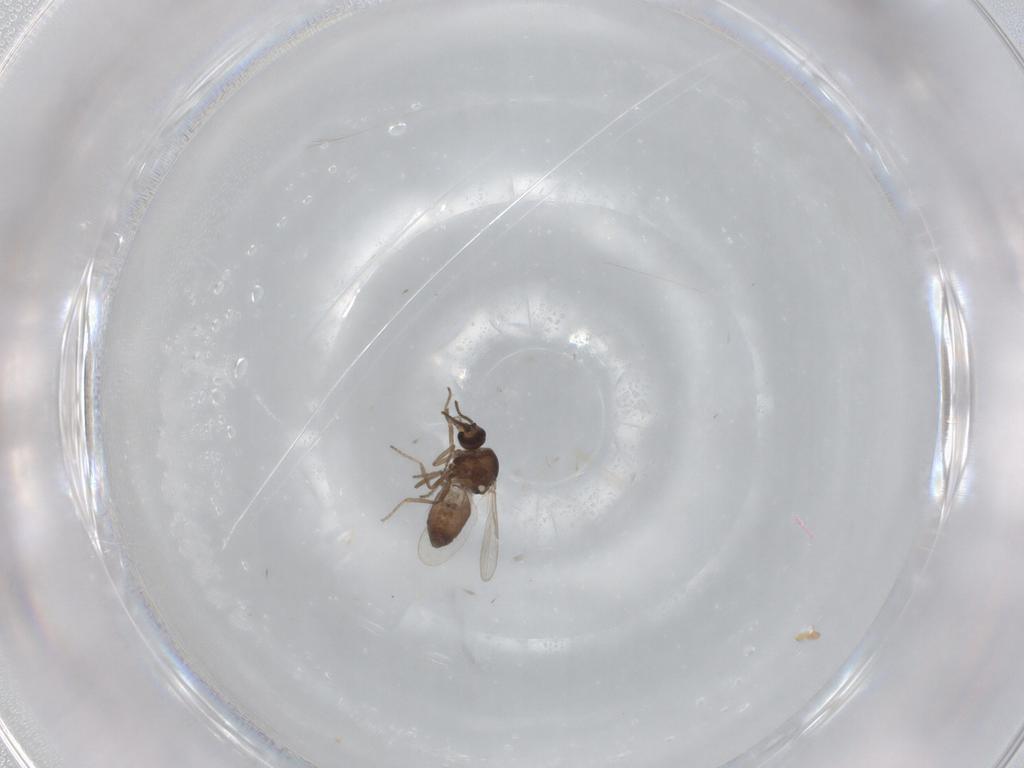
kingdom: Animalia
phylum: Arthropoda
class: Insecta
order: Diptera
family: Ceratopogonidae
